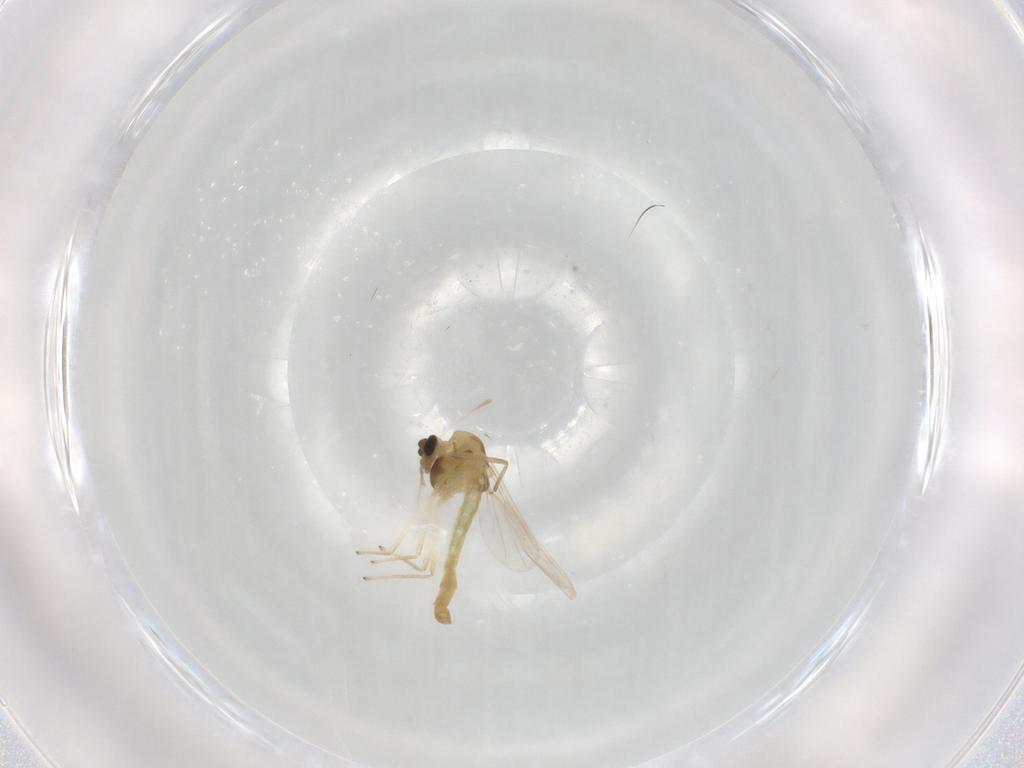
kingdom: Animalia
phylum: Arthropoda
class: Insecta
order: Diptera
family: Chironomidae
